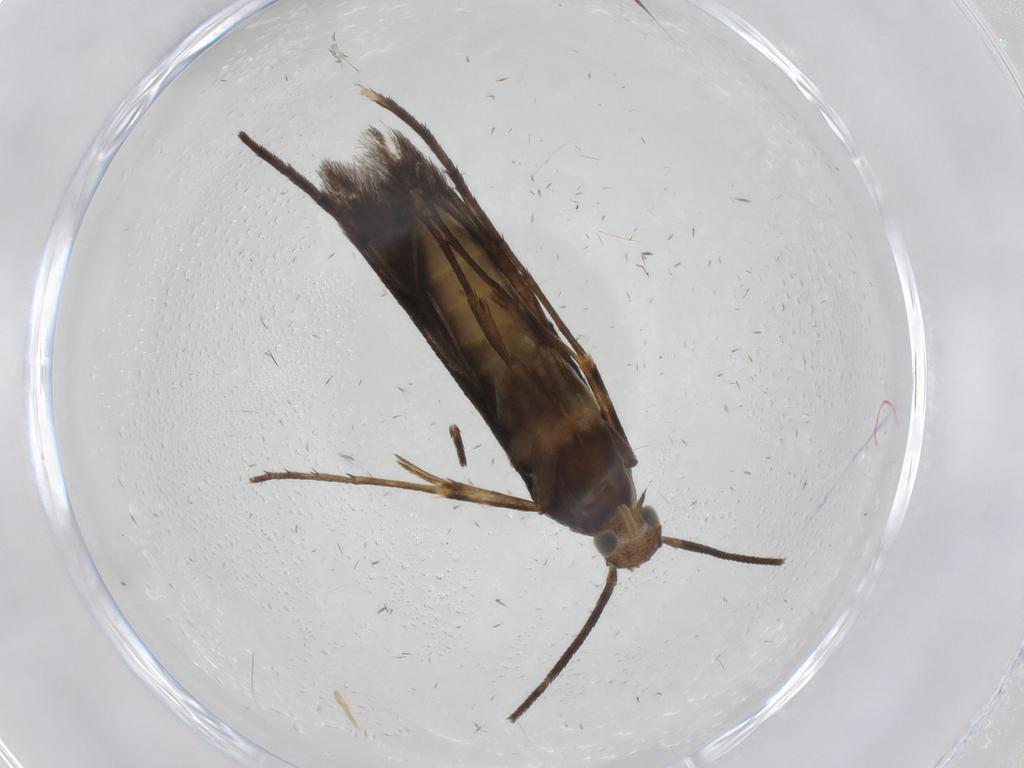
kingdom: Animalia
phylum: Arthropoda
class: Insecta
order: Lepidoptera
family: Heliodinidae
